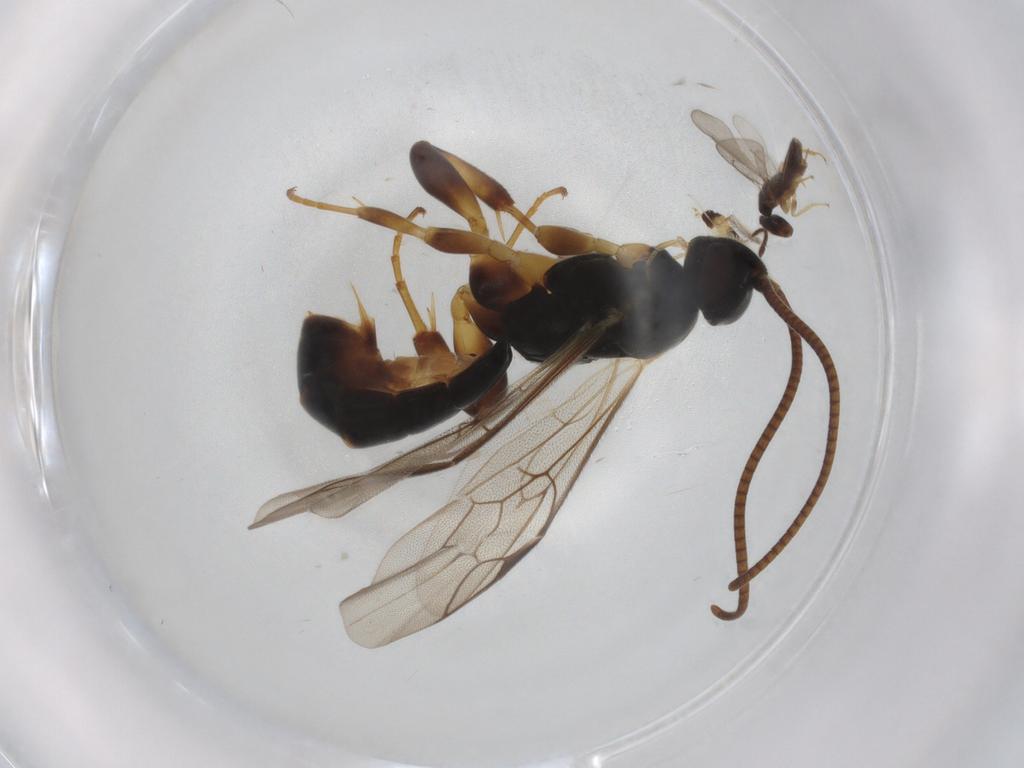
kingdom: Animalia
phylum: Arthropoda
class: Insecta
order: Hymenoptera
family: Ichneumonidae
